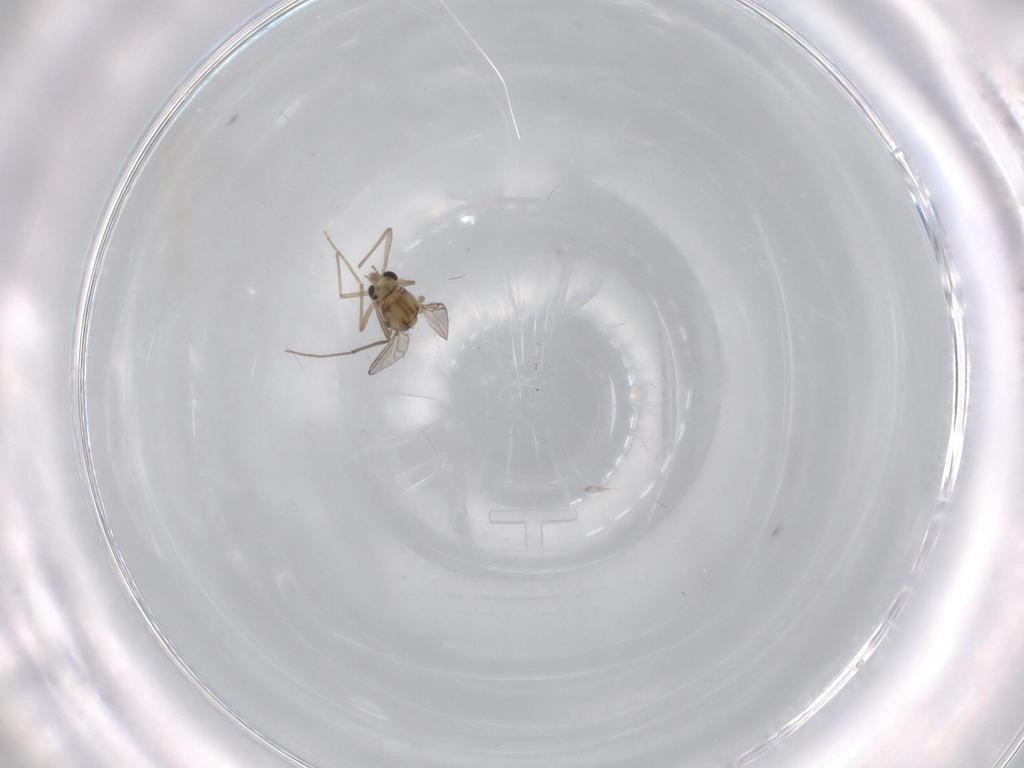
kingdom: Animalia
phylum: Arthropoda
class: Insecta
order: Diptera
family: Chironomidae
